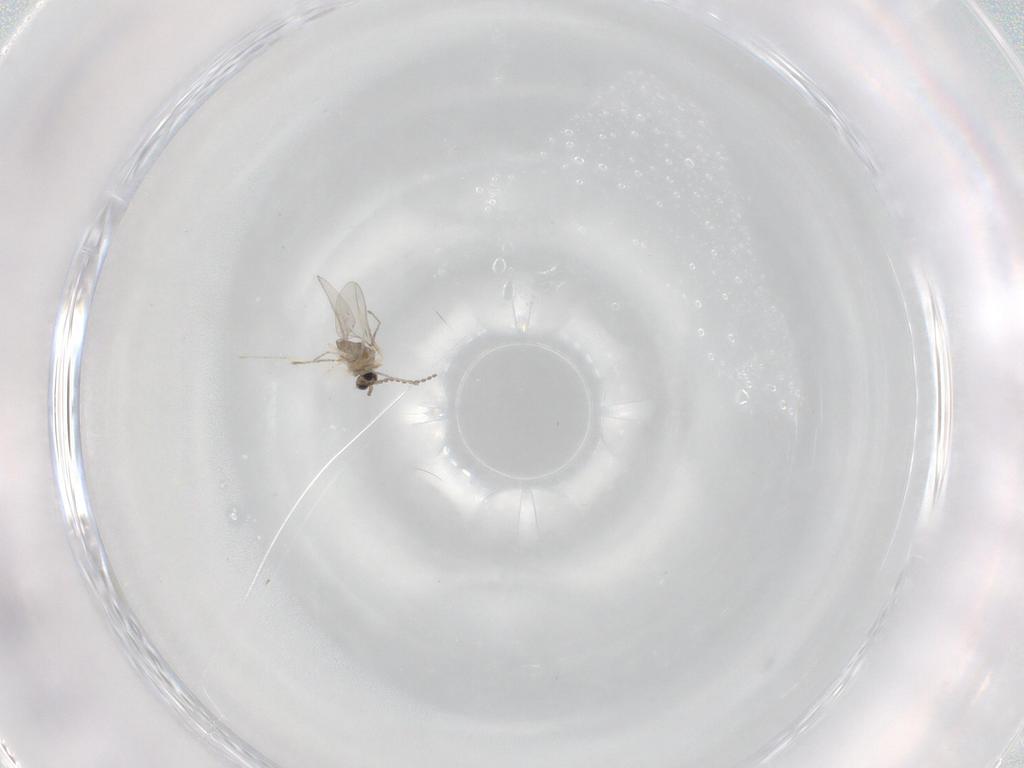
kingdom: Animalia
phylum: Arthropoda
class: Insecta
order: Diptera
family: Cecidomyiidae
